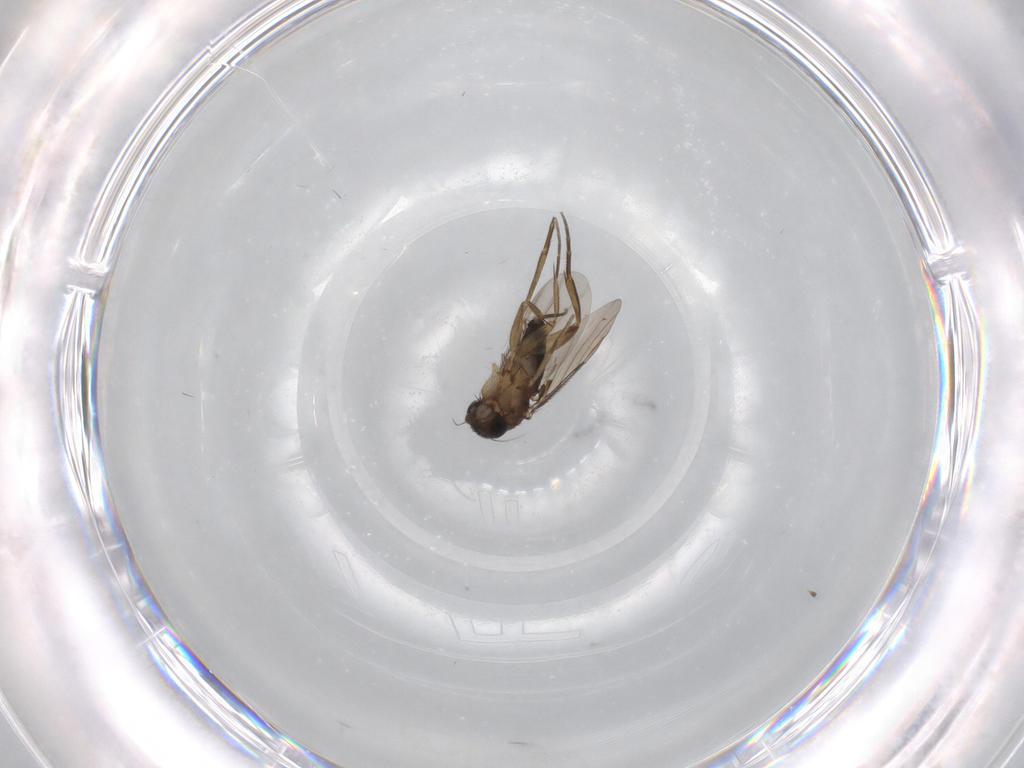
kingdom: Animalia
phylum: Arthropoda
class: Insecta
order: Diptera
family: Phoridae
